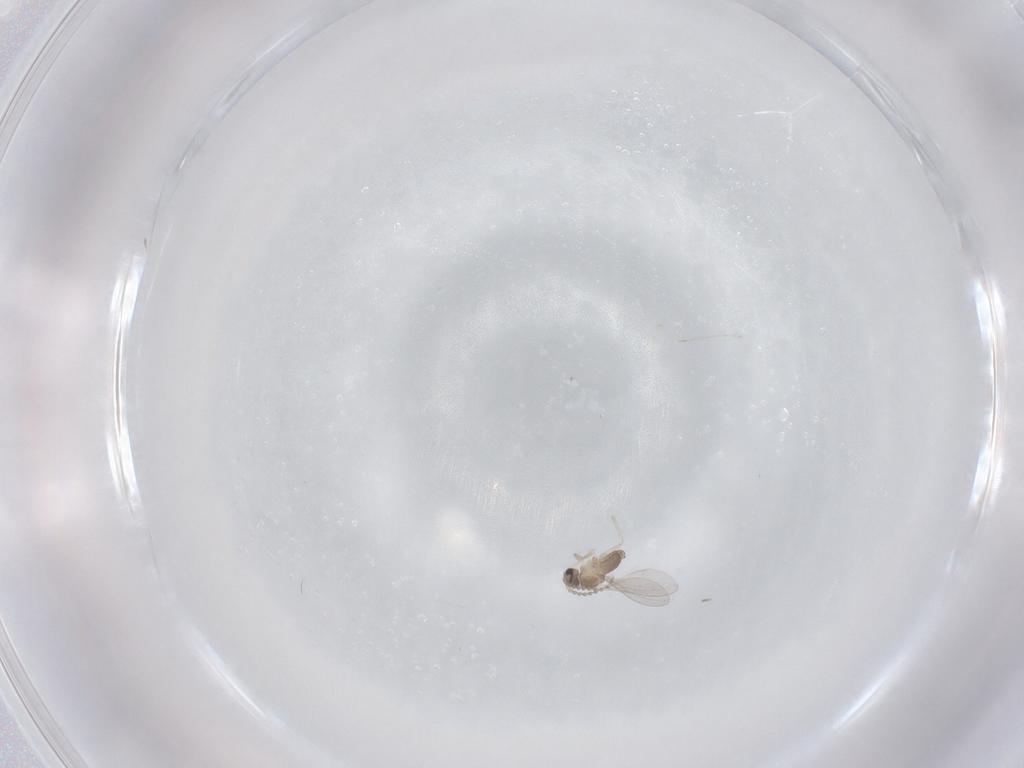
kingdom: Animalia
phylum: Arthropoda
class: Insecta
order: Diptera
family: Cecidomyiidae
